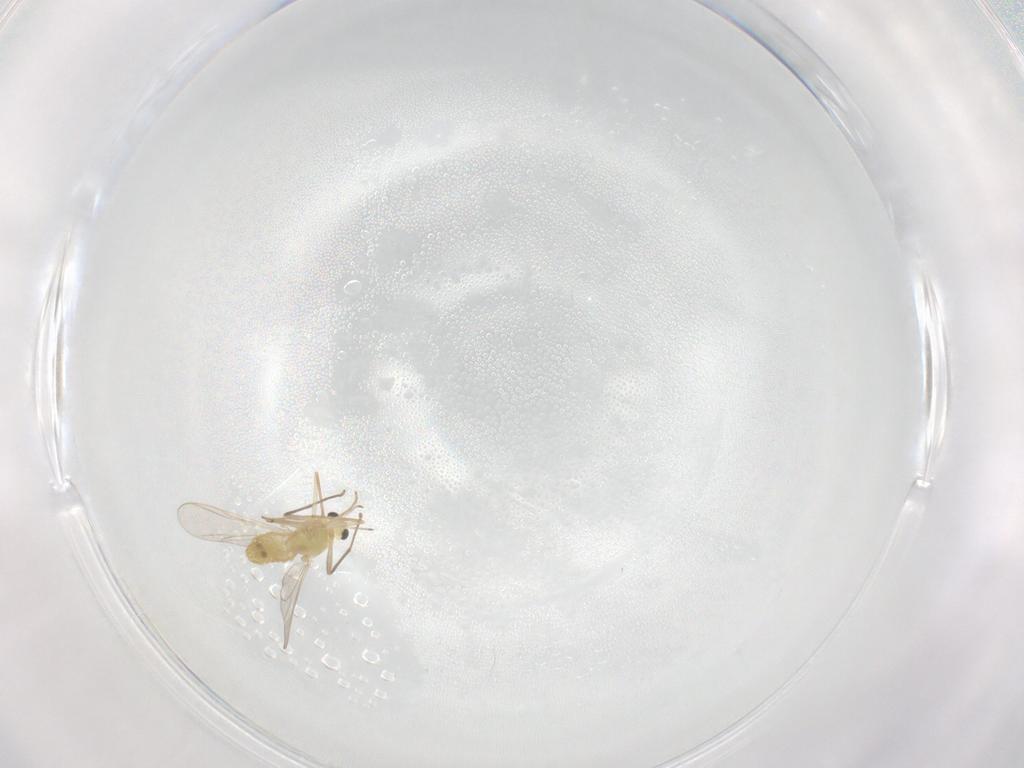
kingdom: Animalia
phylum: Arthropoda
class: Insecta
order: Diptera
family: Chironomidae
